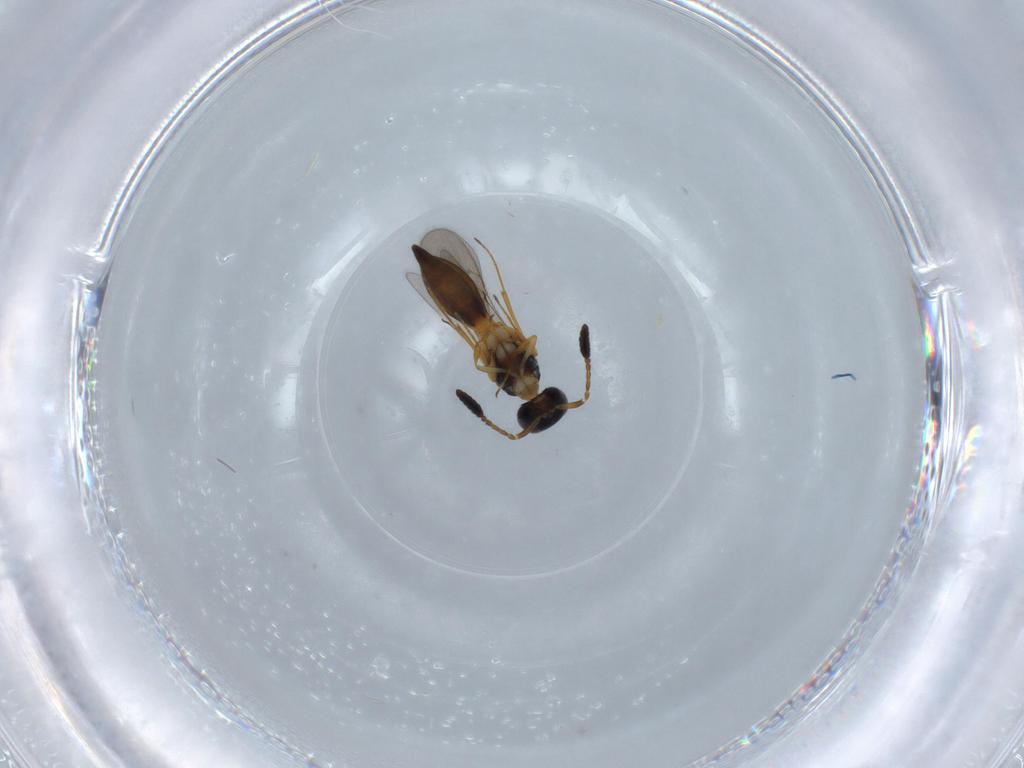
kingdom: Animalia
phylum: Arthropoda
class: Insecta
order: Hymenoptera
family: Scelionidae
